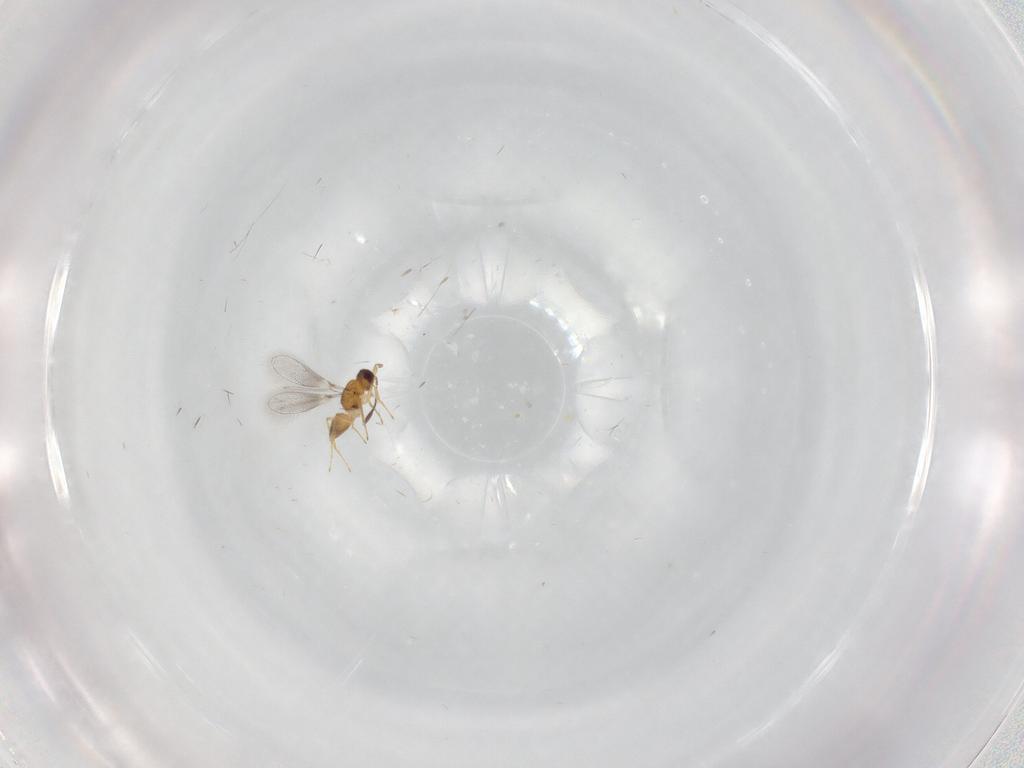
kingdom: Animalia
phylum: Arthropoda
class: Insecta
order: Hymenoptera
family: Mymaridae
